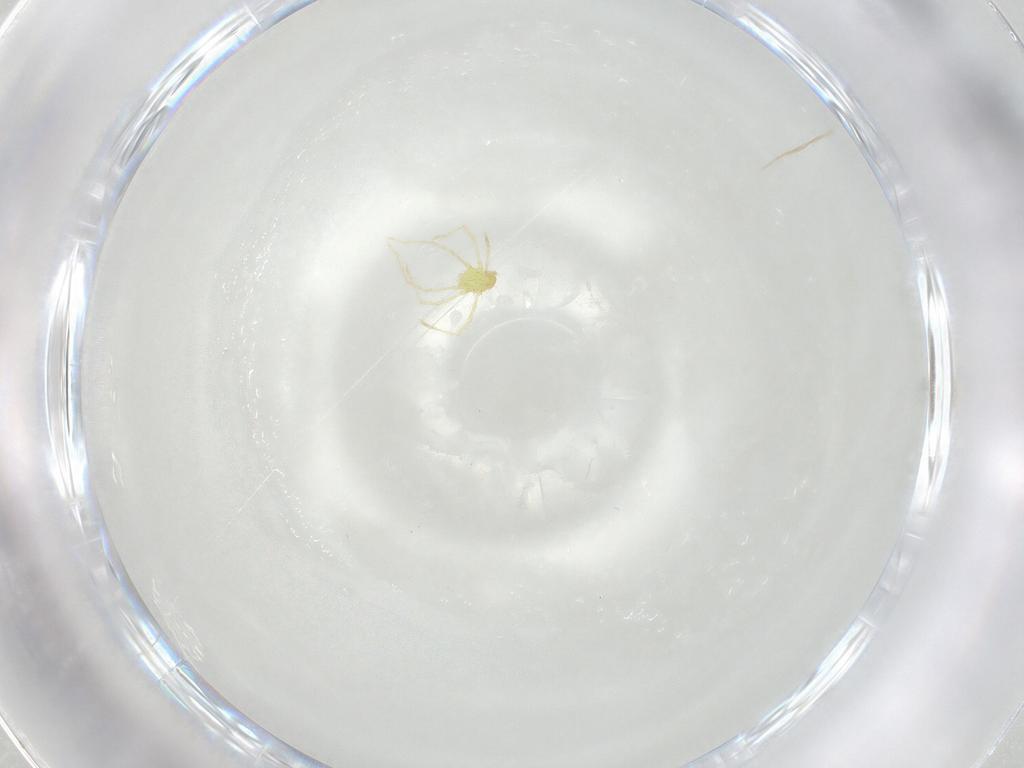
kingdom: Animalia
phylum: Arthropoda
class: Arachnida
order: Trombidiformes
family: Erythraeidae
